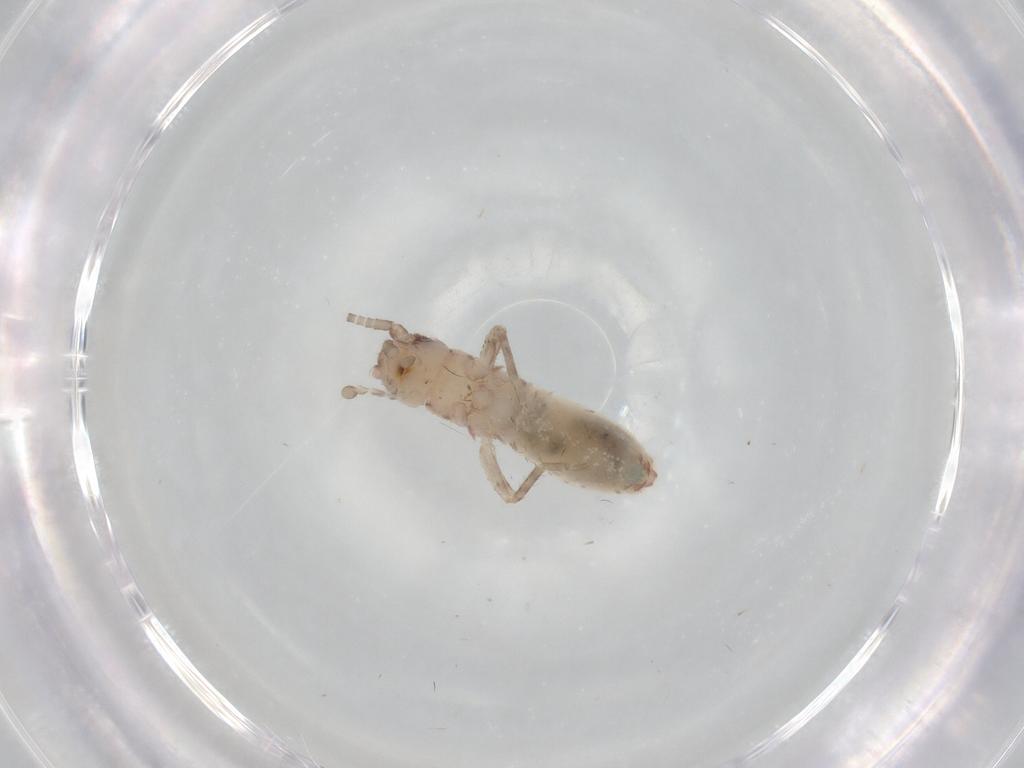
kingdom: Animalia
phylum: Arthropoda
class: Insecta
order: Orthoptera
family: Mogoplistidae
